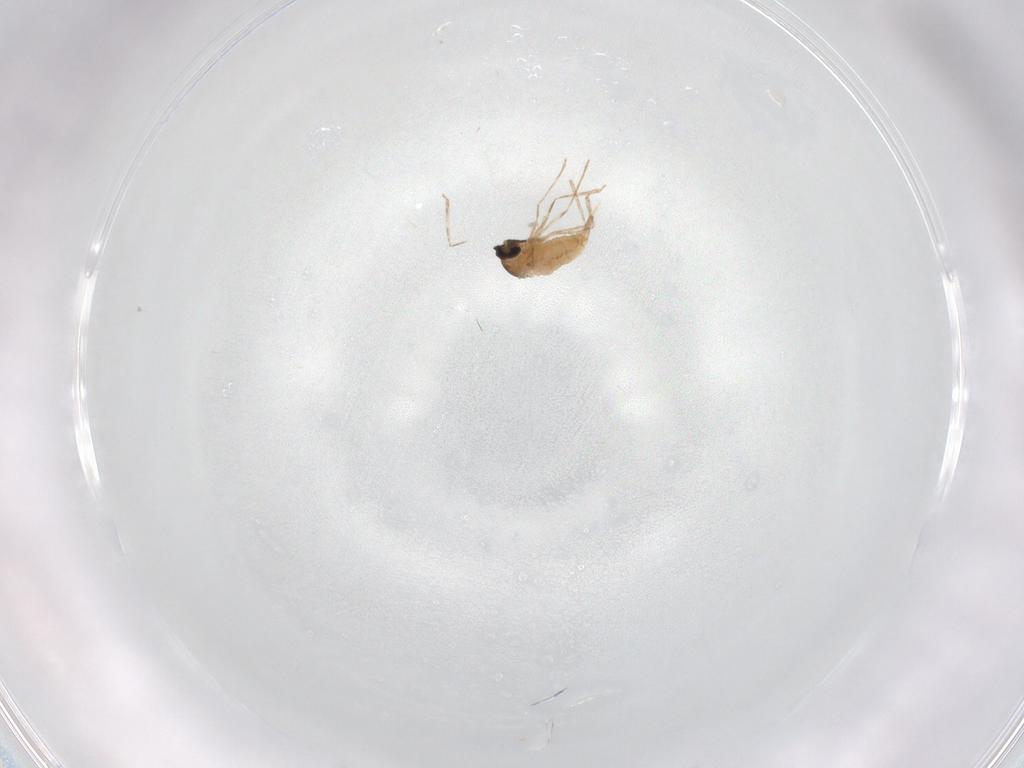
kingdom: Animalia
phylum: Arthropoda
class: Insecta
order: Diptera
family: Cecidomyiidae
